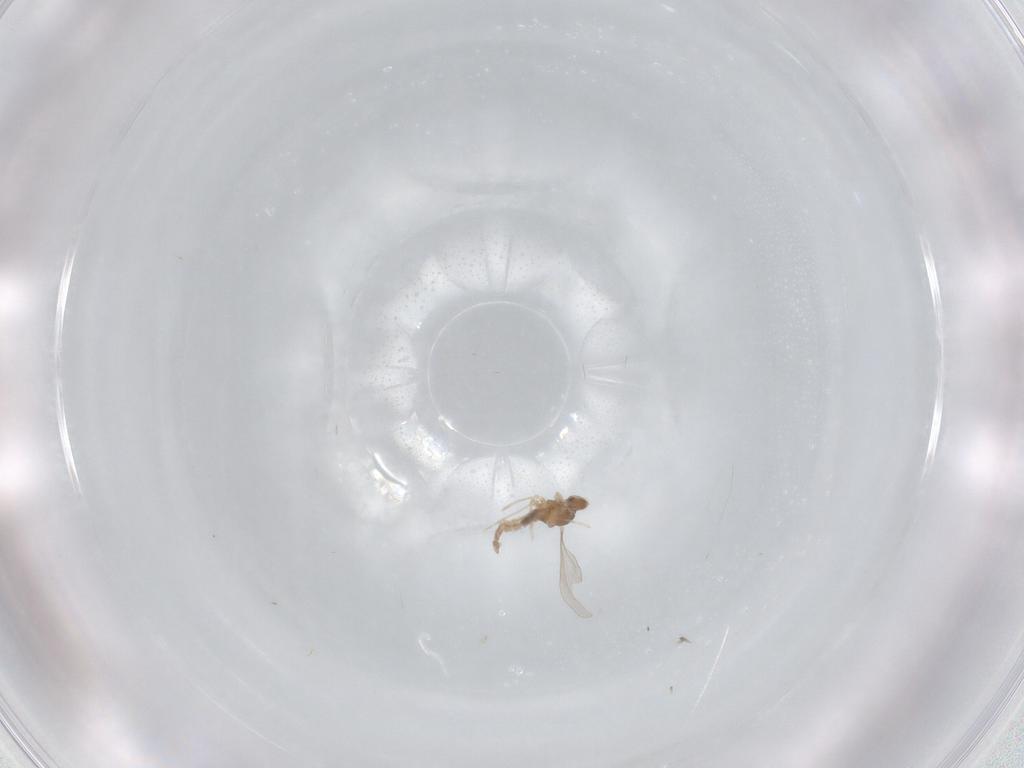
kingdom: Animalia
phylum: Arthropoda
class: Insecta
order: Diptera
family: Cecidomyiidae
